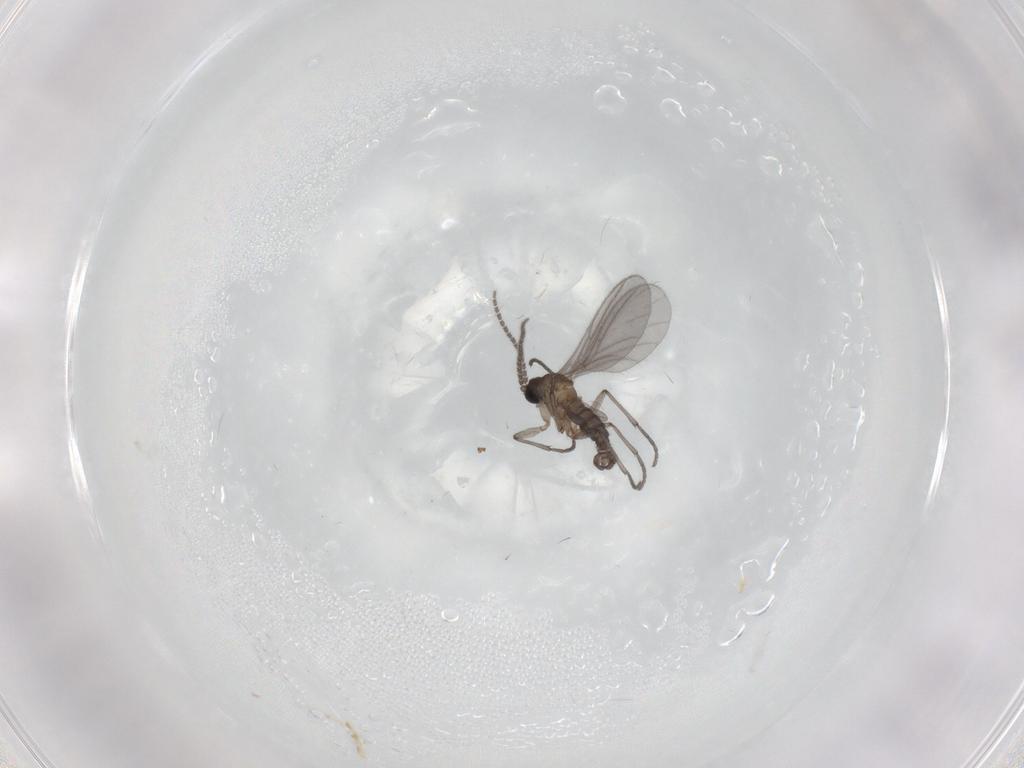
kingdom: Animalia
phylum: Arthropoda
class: Insecta
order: Diptera
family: Sciaridae
